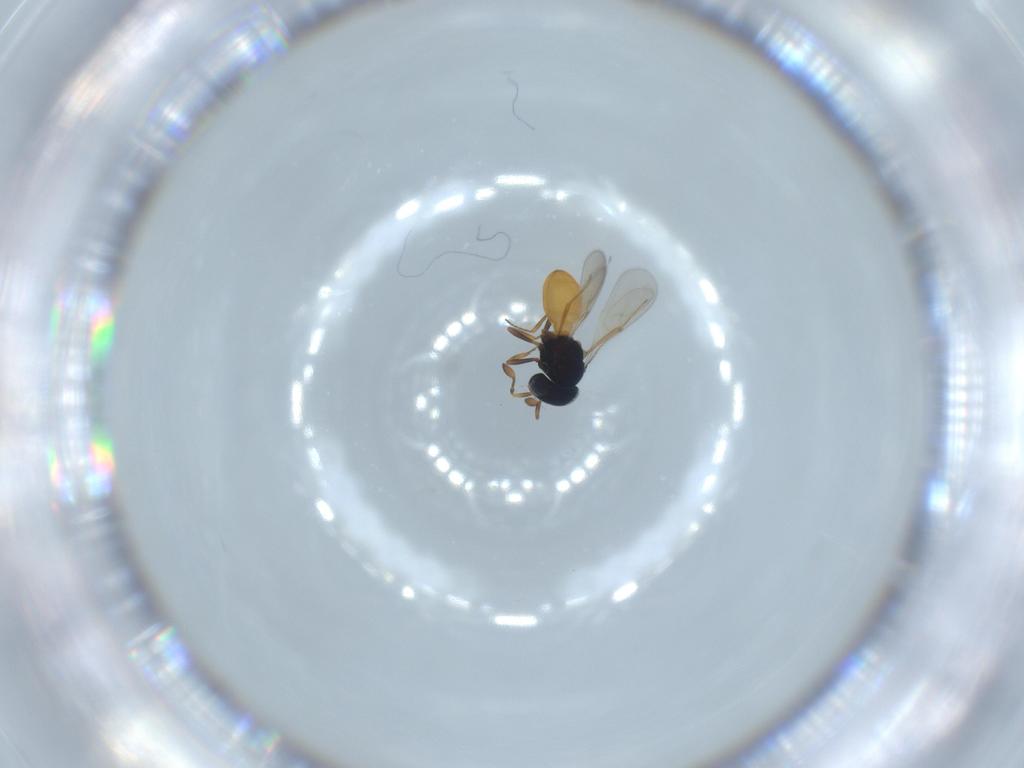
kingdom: Animalia
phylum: Arthropoda
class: Insecta
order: Hymenoptera
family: Scelionidae
